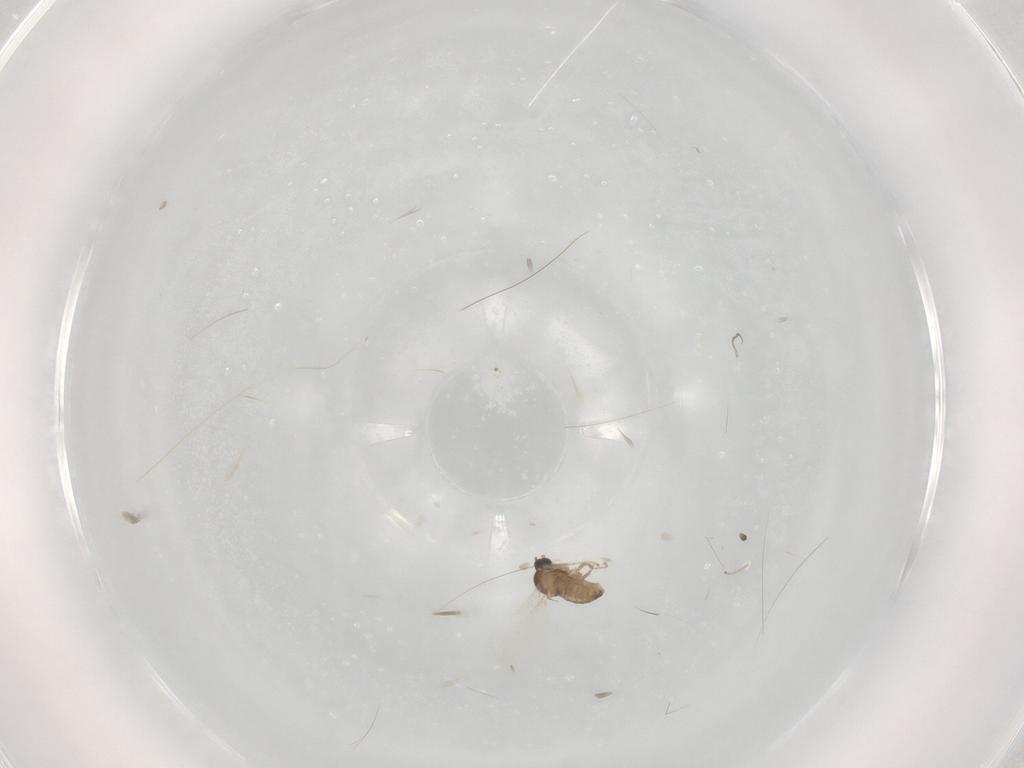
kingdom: Animalia
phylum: Arthropoda
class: Insecta
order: Diptera
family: Cecidomyiidae
